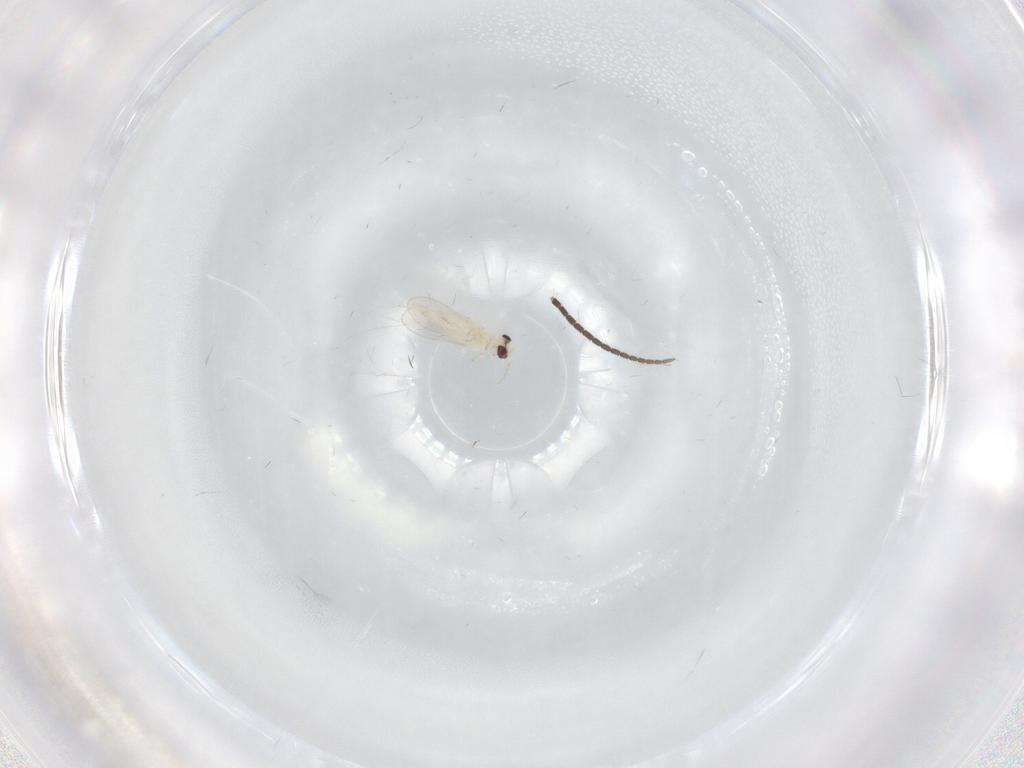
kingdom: Animalia
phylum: Arthropoda
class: Insecta
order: Diptera
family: Cecidomyiidae
